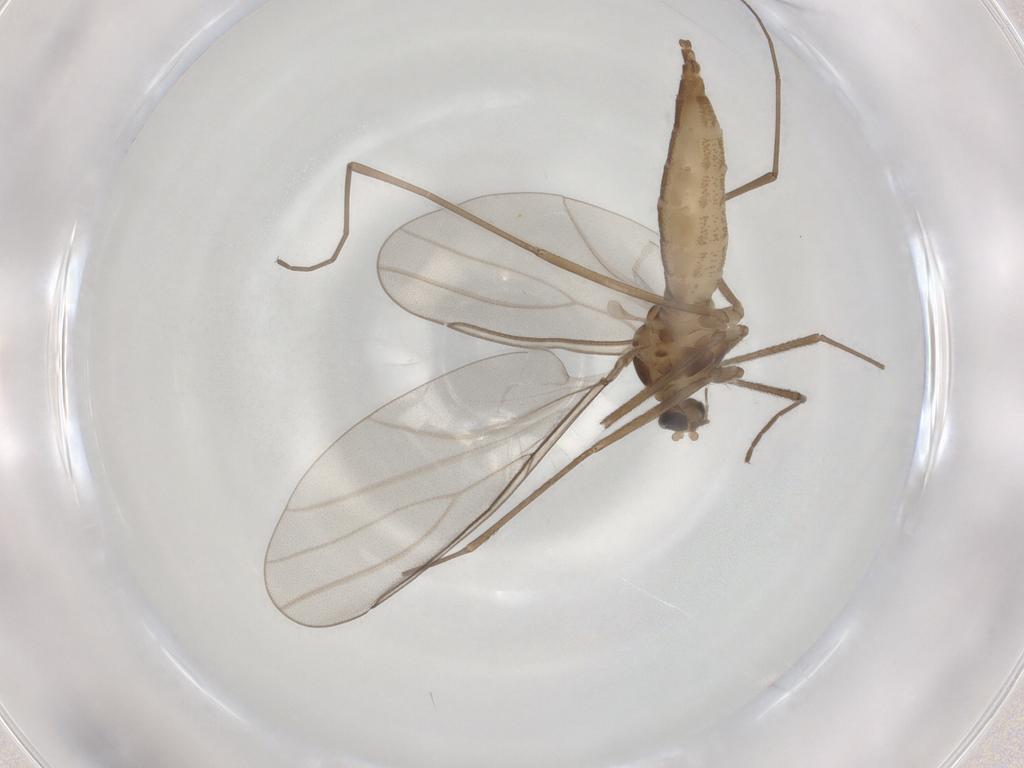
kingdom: Animalia
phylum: Arthropoda
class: Insecta
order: Diptera
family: Cecidomyiidae
